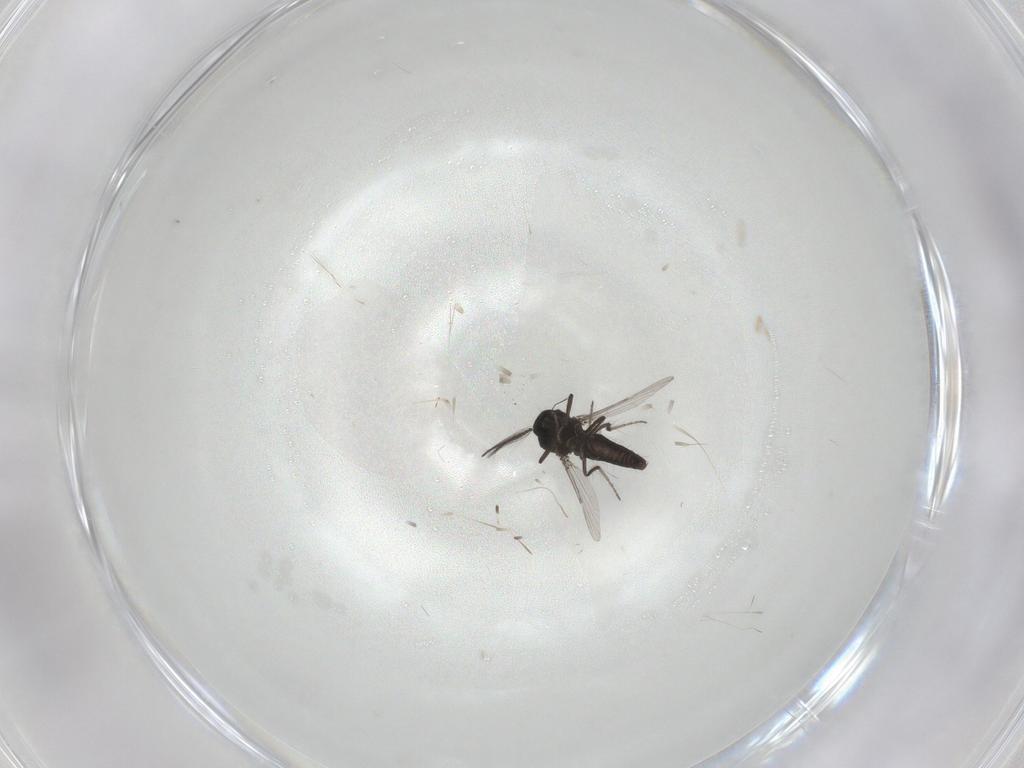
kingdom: Animalia
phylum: Arthropoda
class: Insecta
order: Diptera
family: Ceratopogonidae
